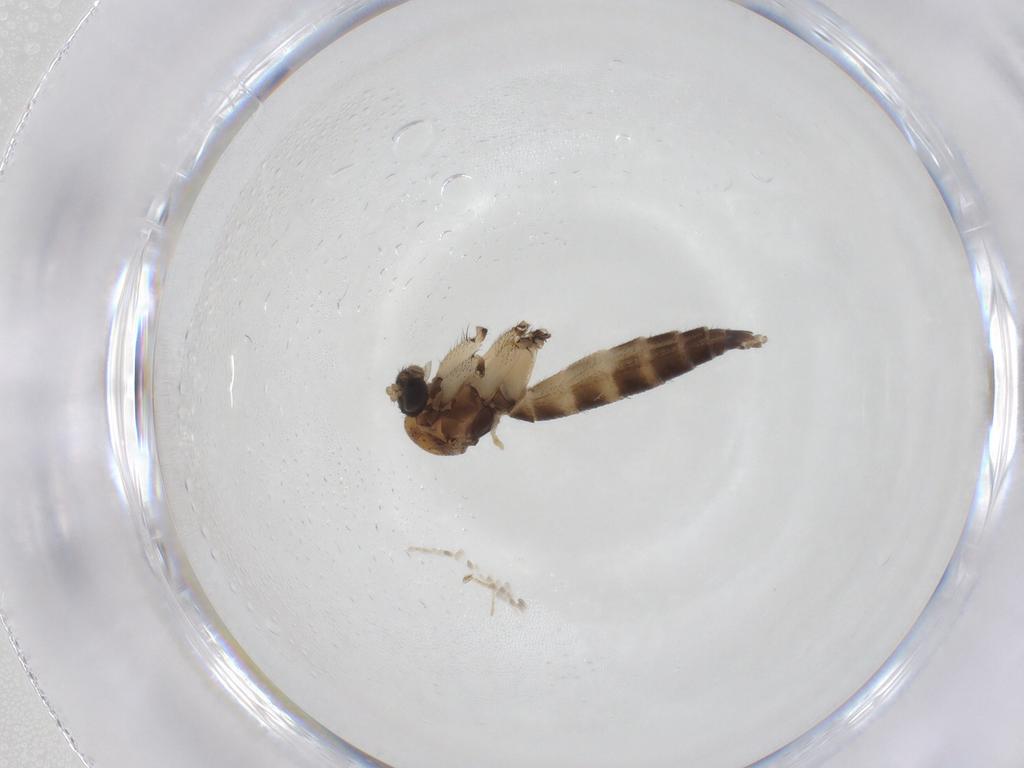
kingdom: Animalia
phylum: Arthropoda
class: Insecta
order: Diptera
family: Mycetophilidae
